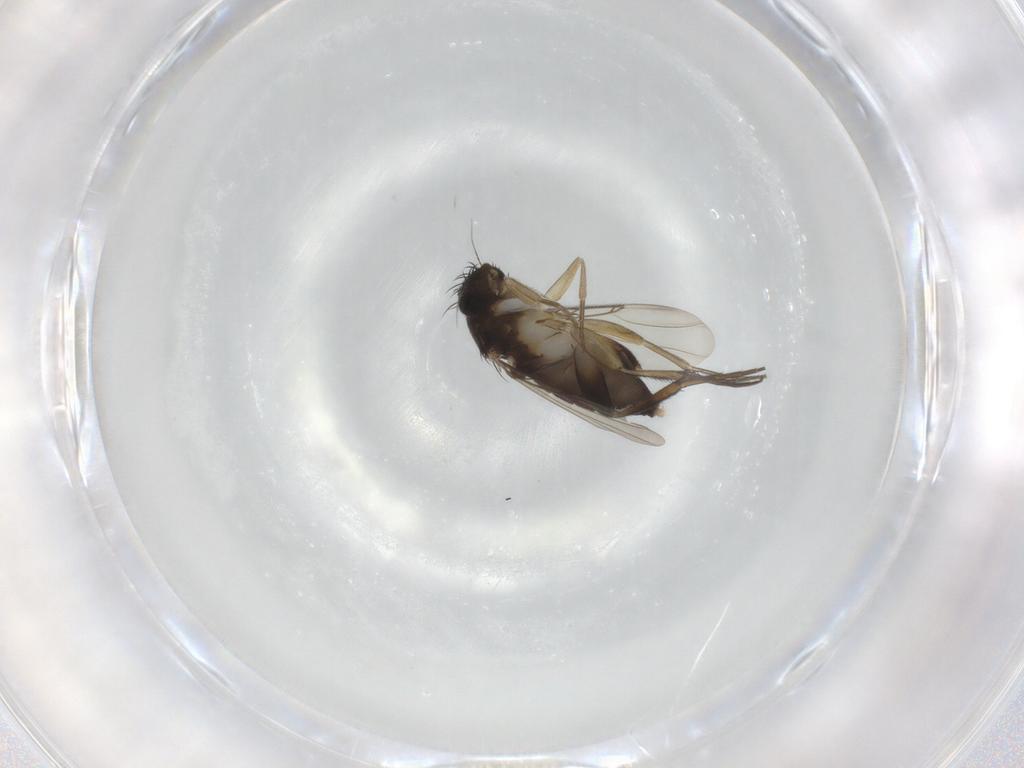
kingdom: Animalia
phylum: Arthropoda
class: Insecta
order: Diptera
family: Phoridae
